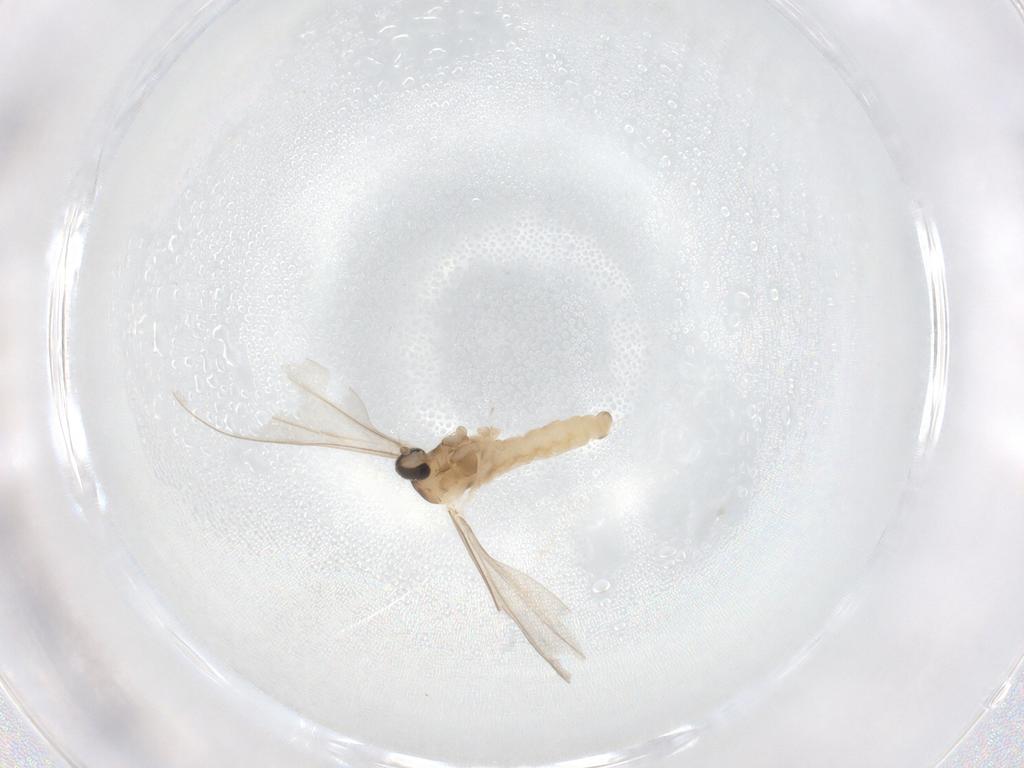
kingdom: Animalia
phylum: Arthropoda
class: Insecta
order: Diptera
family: Cecidomyiidae
